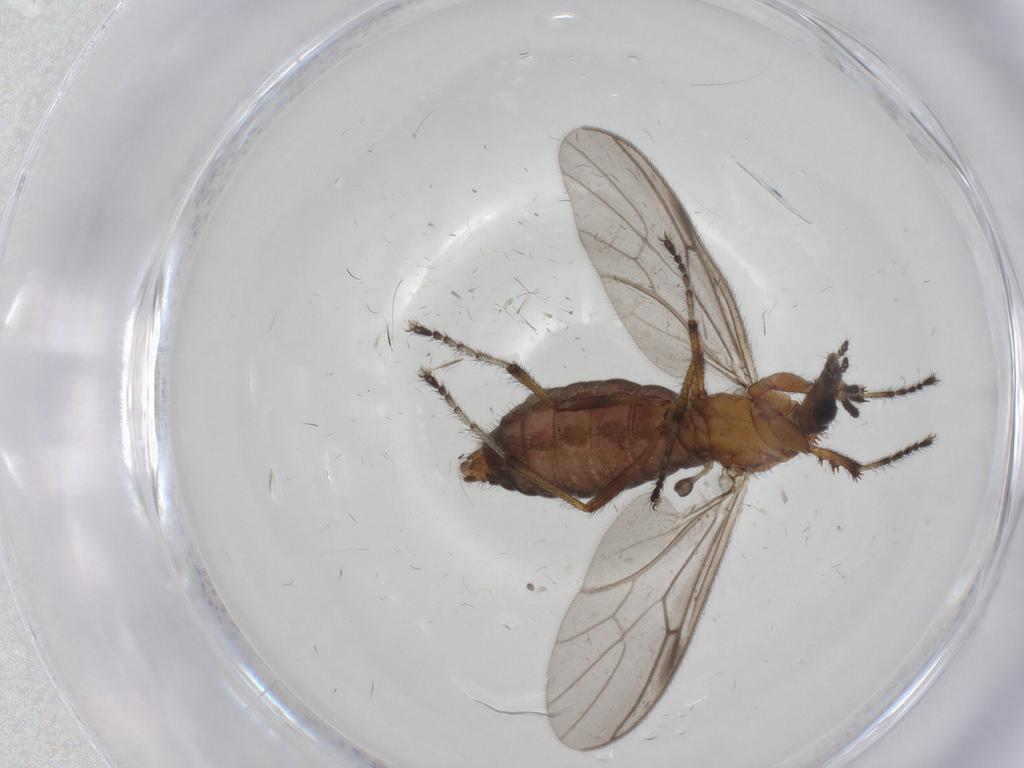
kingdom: Animalia
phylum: Arthropoda
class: Insecta
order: Diptera
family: Bibionidae
